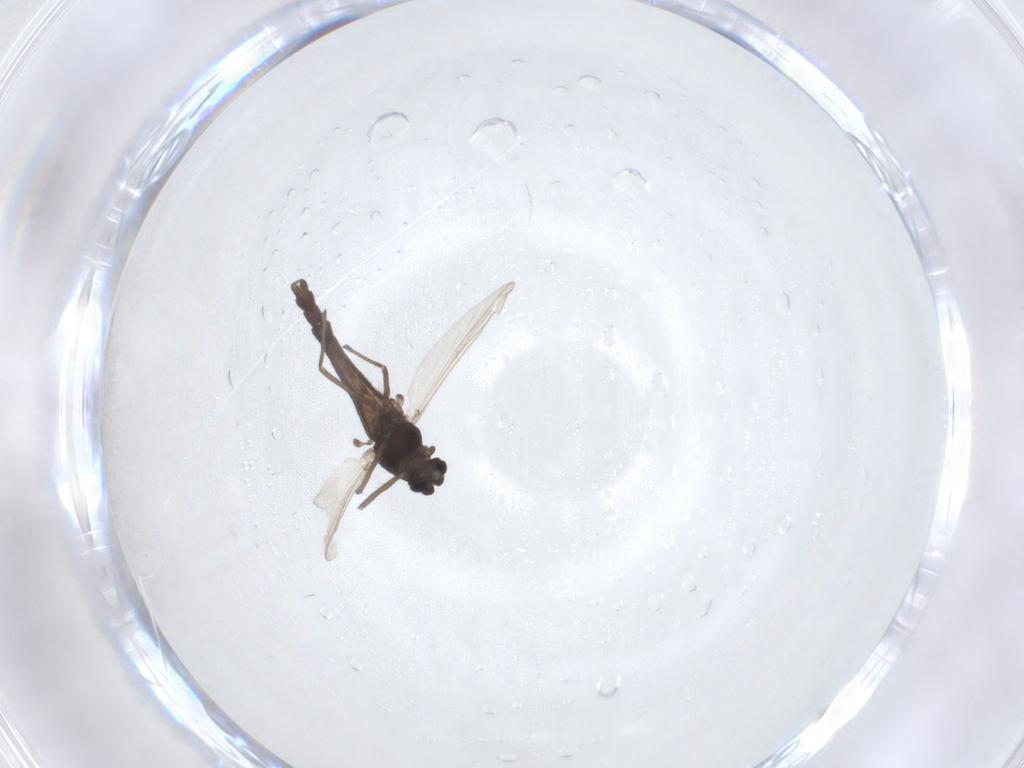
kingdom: Animalia
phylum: Arthropoda
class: Insecta
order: Diptera
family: Chironomidae
